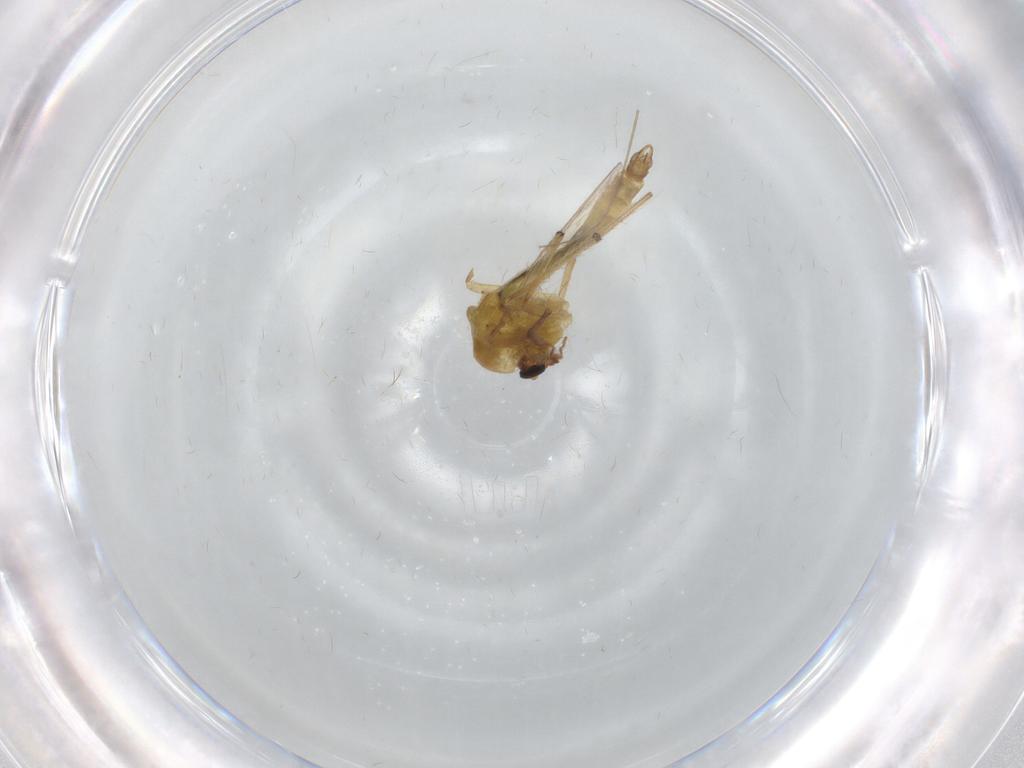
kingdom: Animalia
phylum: Arthropoda
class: Insecta
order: Diptera
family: Chironomidae
